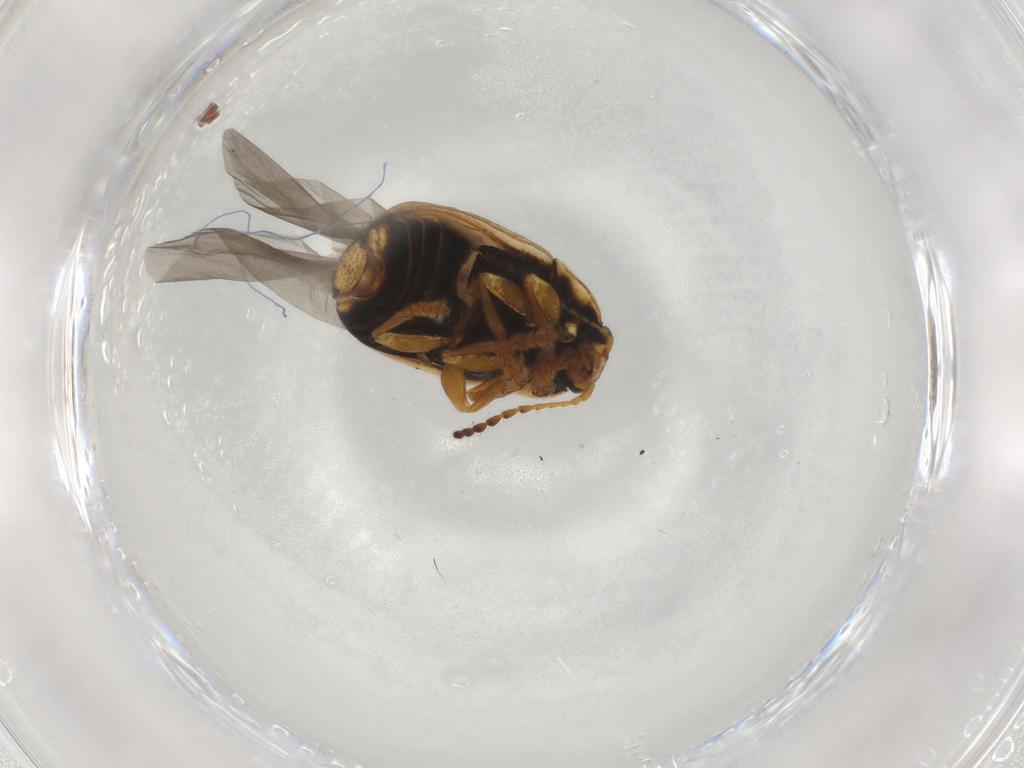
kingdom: Animalia
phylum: Arthropoda
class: Insecta
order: Coleoptera
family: Chrysomelidae
